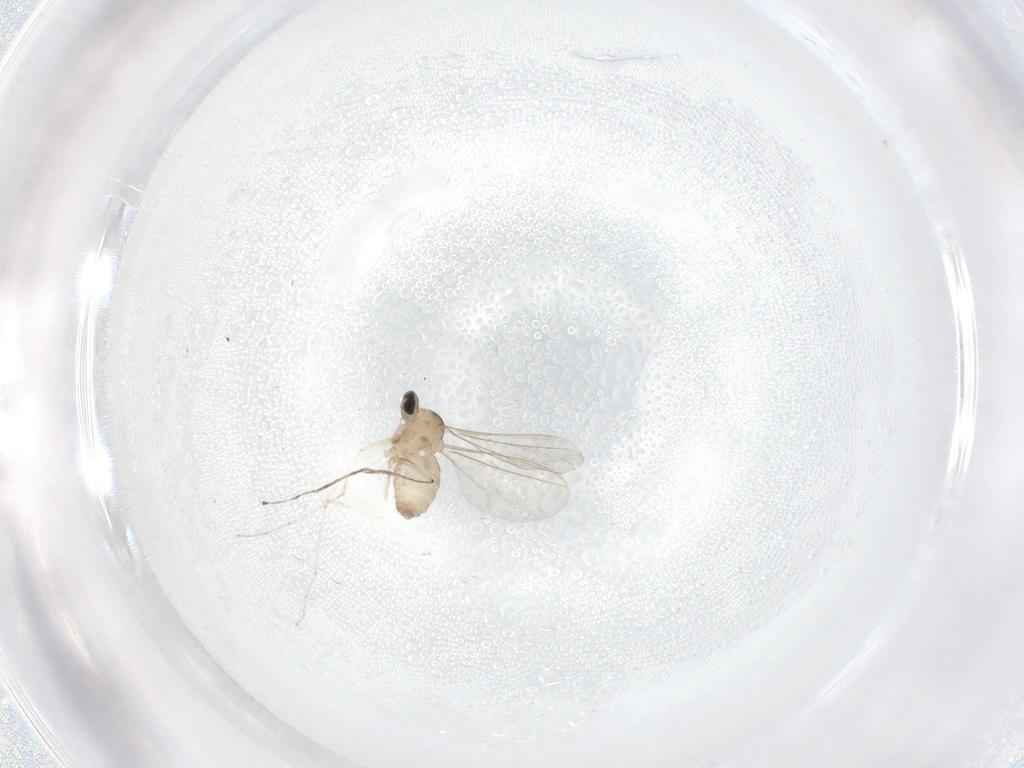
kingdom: Animalia
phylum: Arthropoda
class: Insecta
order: Diptera
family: Cecidomyiidae
